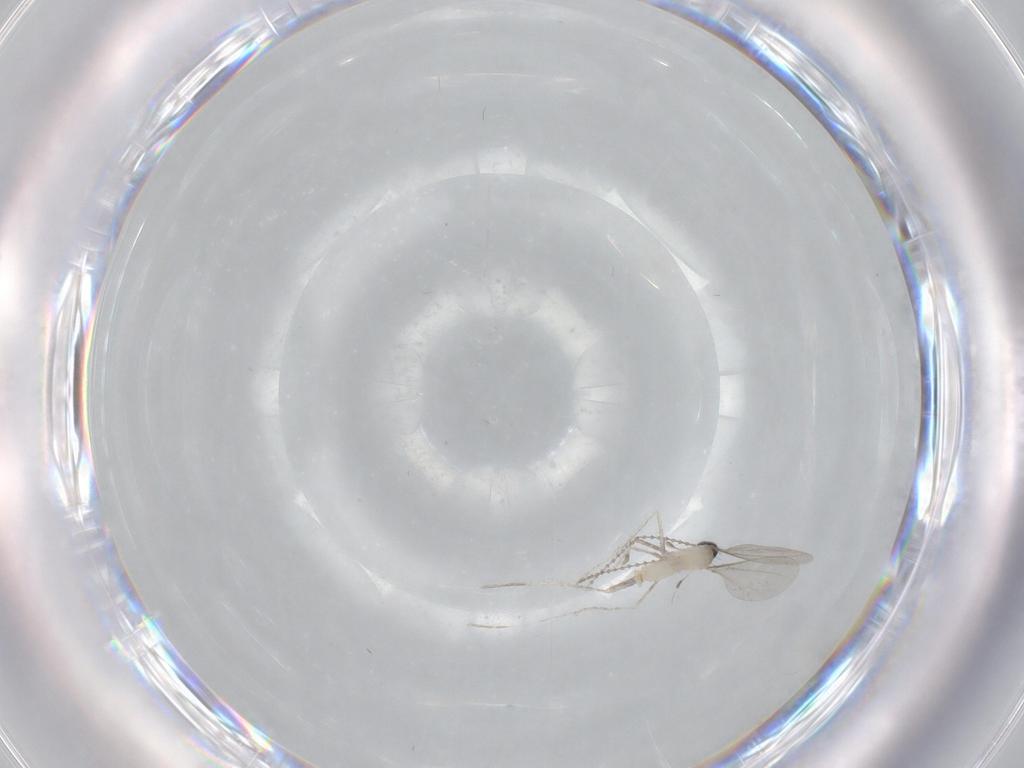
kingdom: Animalia
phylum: Arthropoda
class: Insecta
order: Diptera
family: Cecidomyiidae
